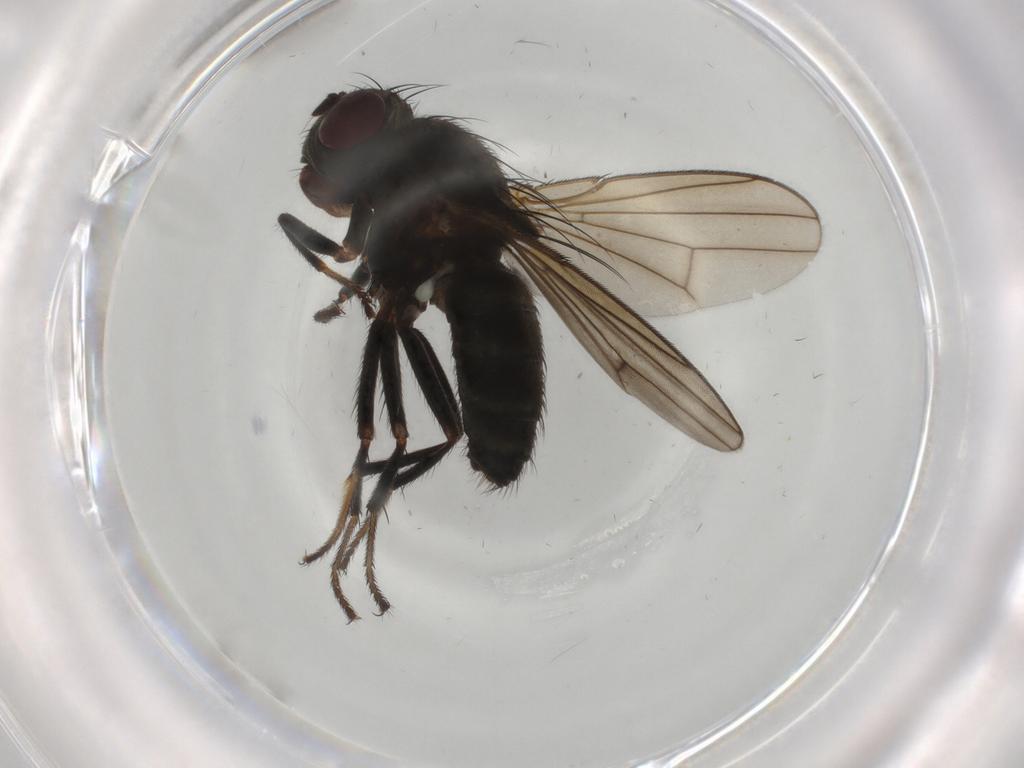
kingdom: Animalia
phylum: Arthropoda
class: Insecta
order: Diptera
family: Ephydridae
